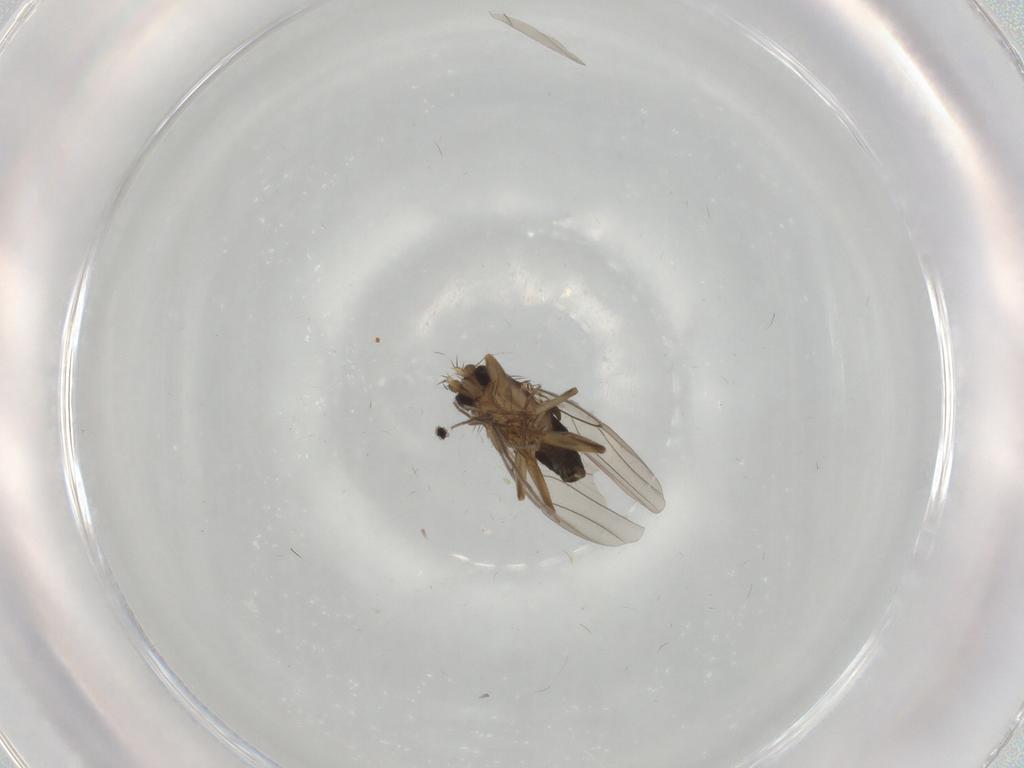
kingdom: Animalia
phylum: Arthropoda
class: Insecta
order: Diptera
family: Phoridae
